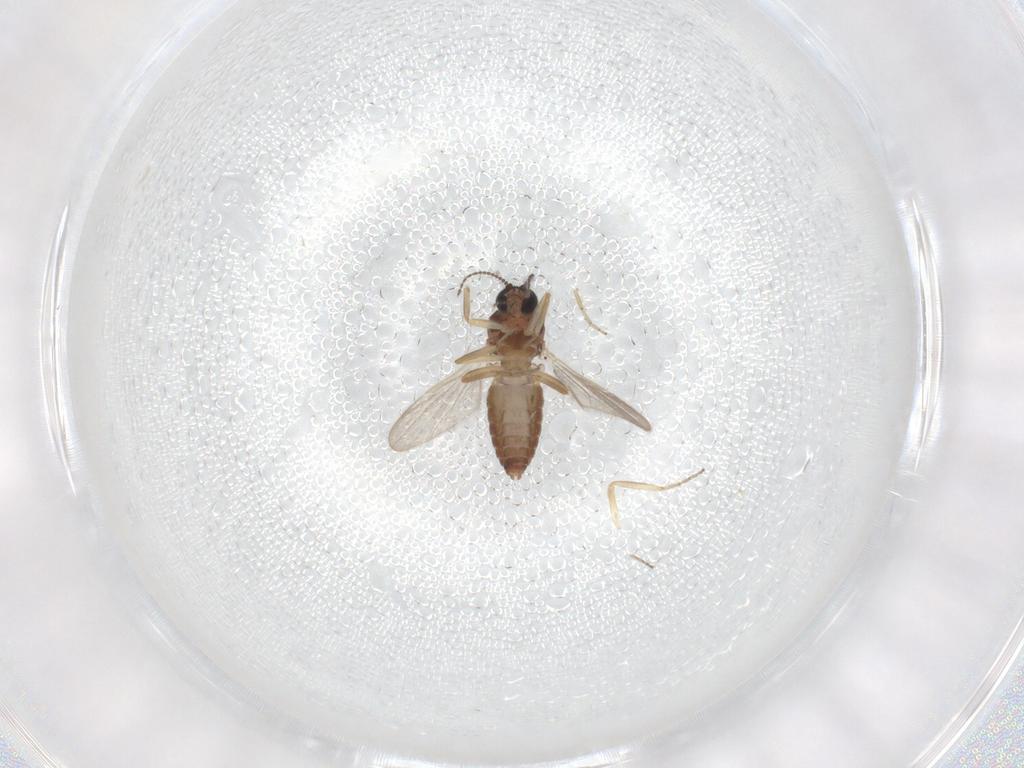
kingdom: Animalia
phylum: Arthropoda
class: Insecta
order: Diptera
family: Ceratopogonidae
